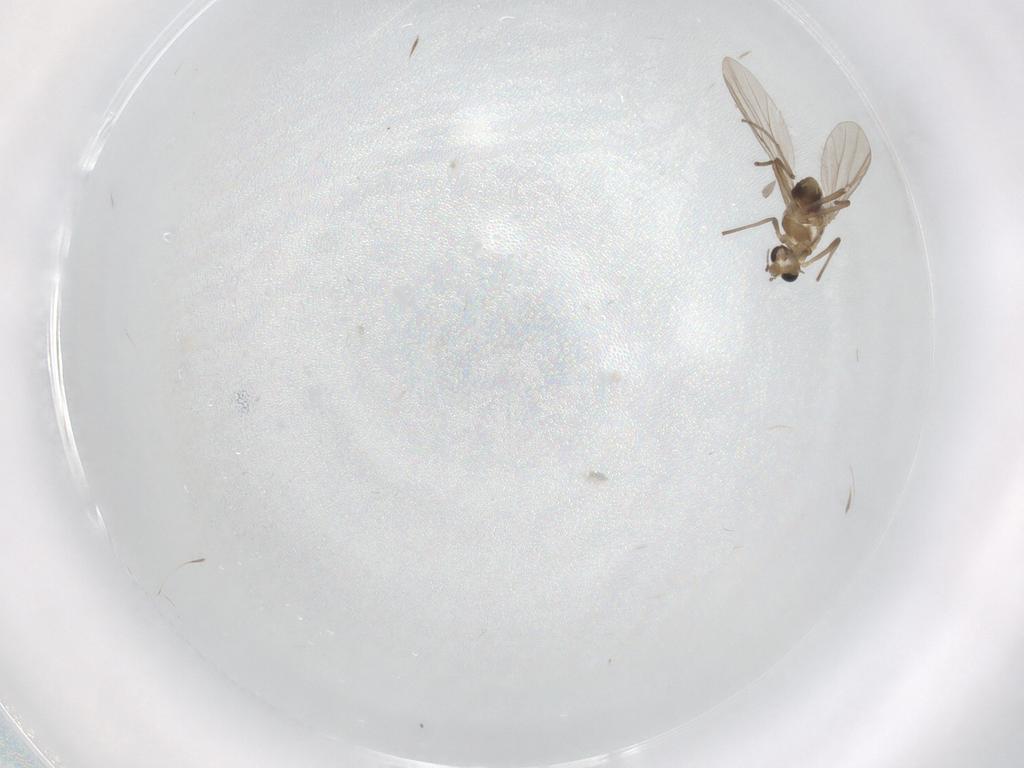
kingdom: Animalia
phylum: Arthropoda
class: Insecta
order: Diptera
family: Chironomidae
